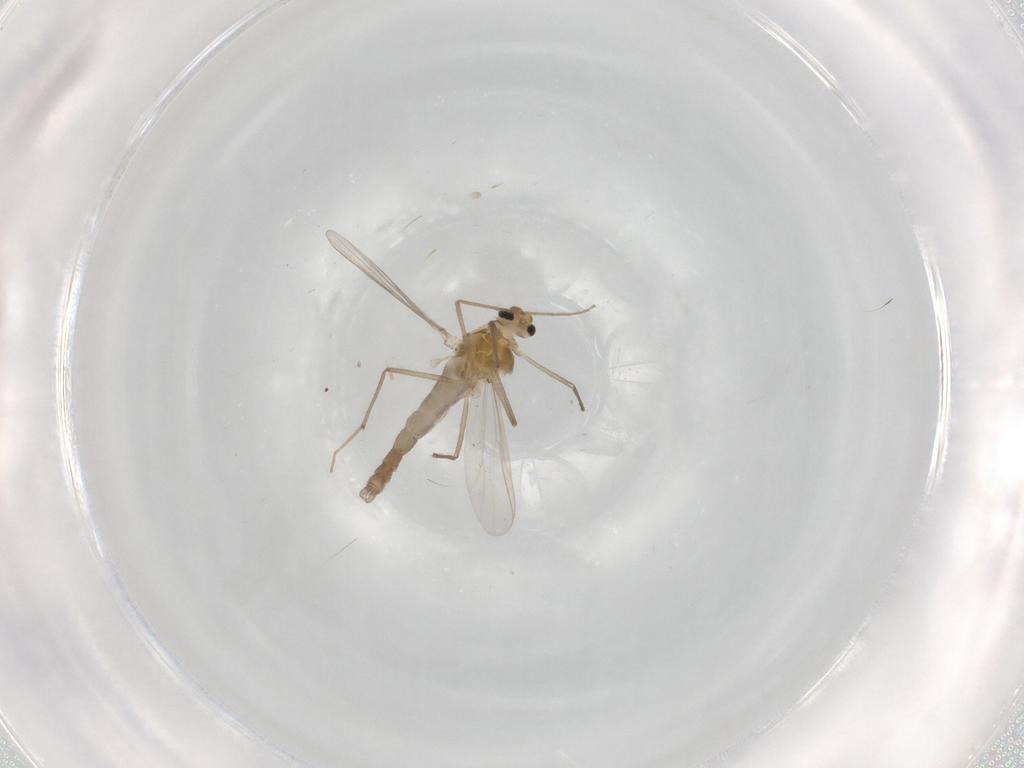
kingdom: Animalia
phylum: Arthropoda
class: Insecta
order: Diptera
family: Chironomidae
